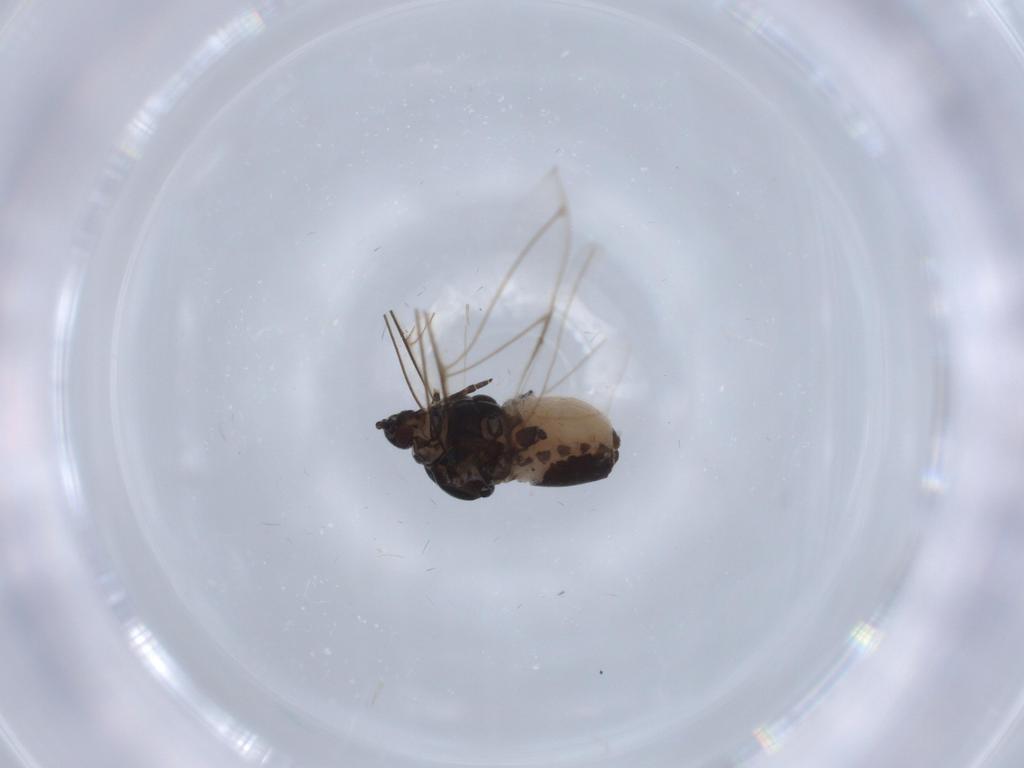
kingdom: Animalia
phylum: Arthropoda
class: Insecta
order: Hemiptera
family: Aphididae
